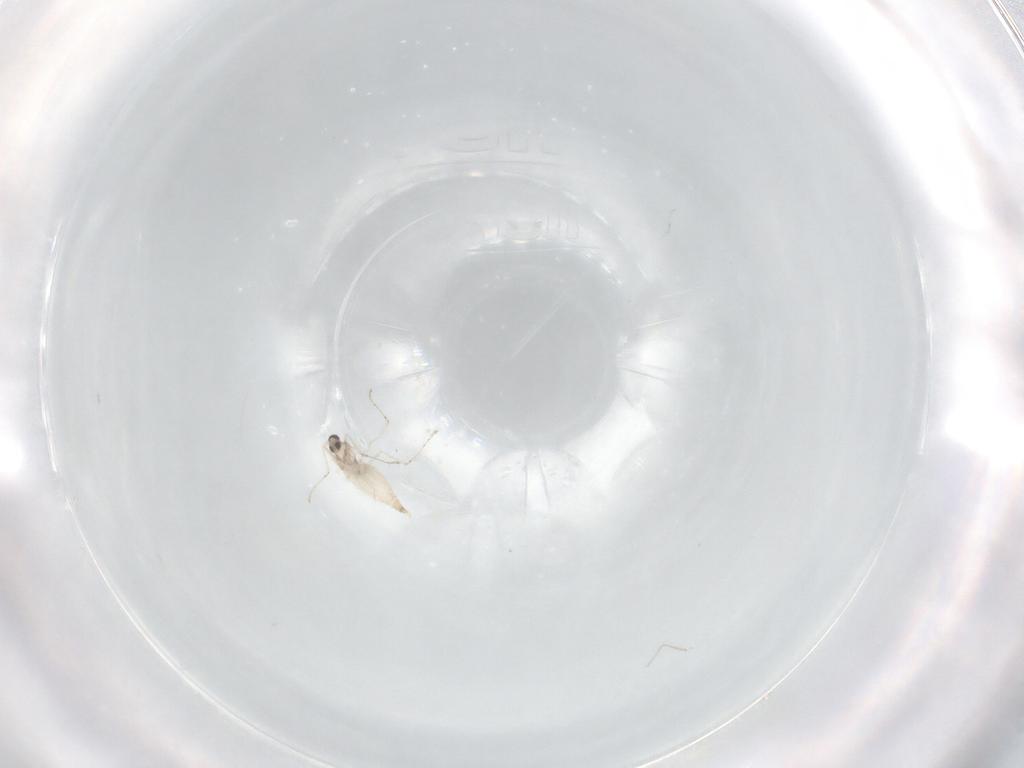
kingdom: Animalia
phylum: Arthropoda
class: Insecta
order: Diptera
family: Cecidomyiidae
